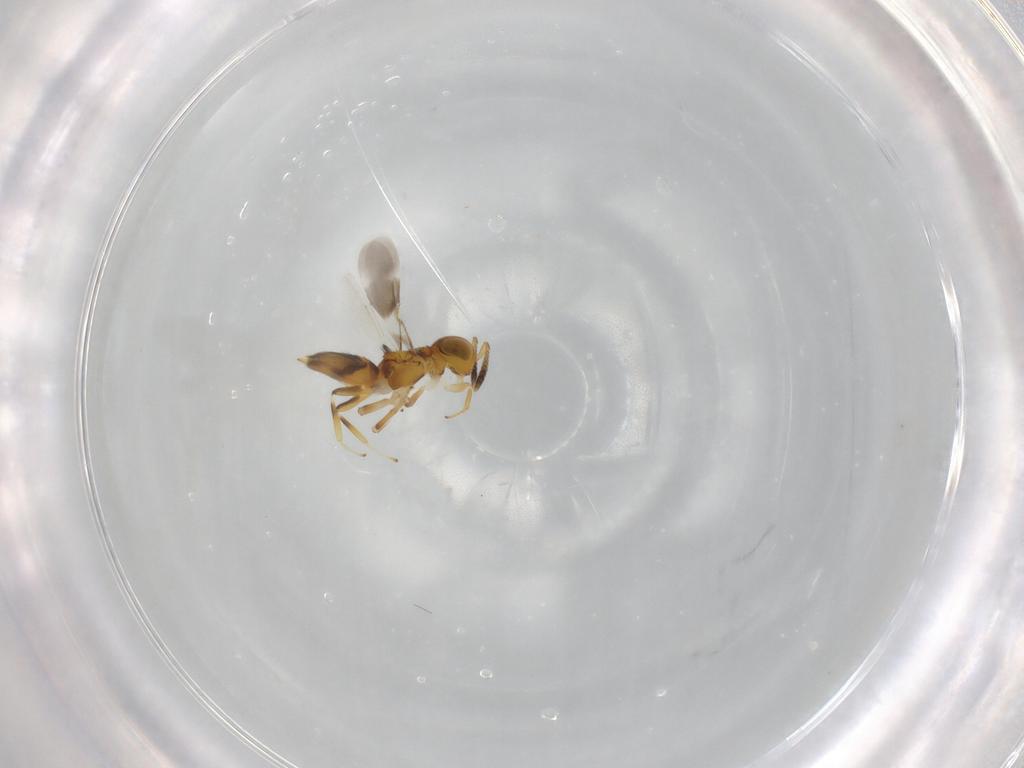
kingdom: Animalia
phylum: Arthropoda
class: Insecta
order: Hymenoptera
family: Encyrtidae
